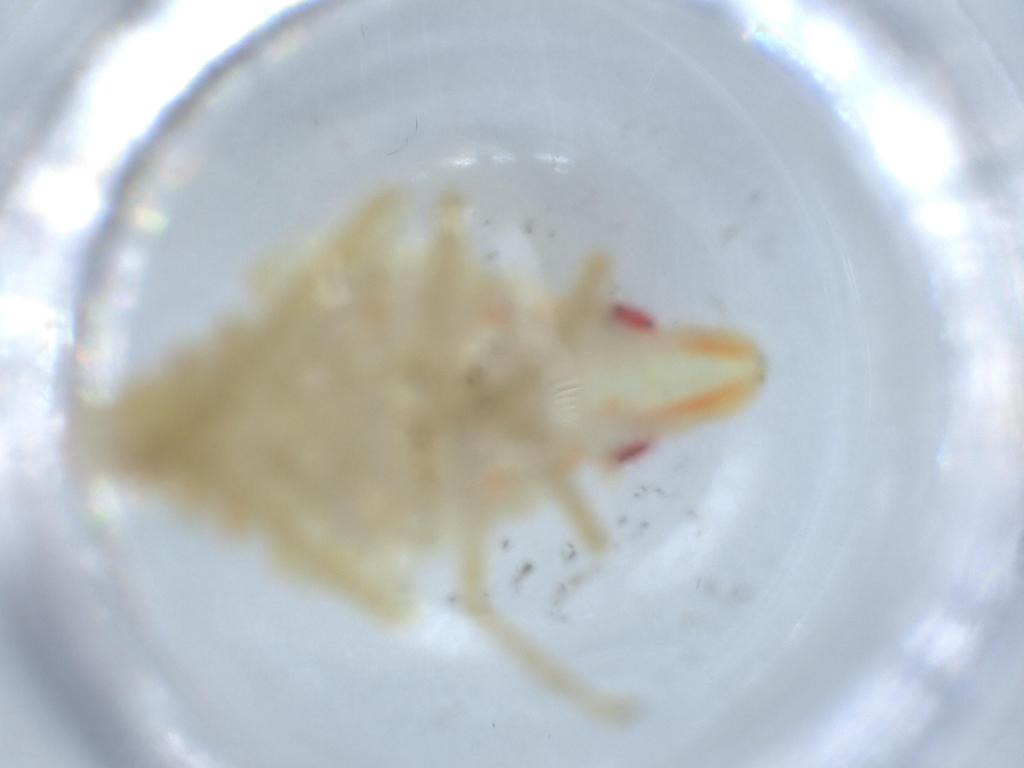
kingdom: Animalia
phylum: Arthropoda
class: Insecta
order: Hemiptera
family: Tropiduchidae
